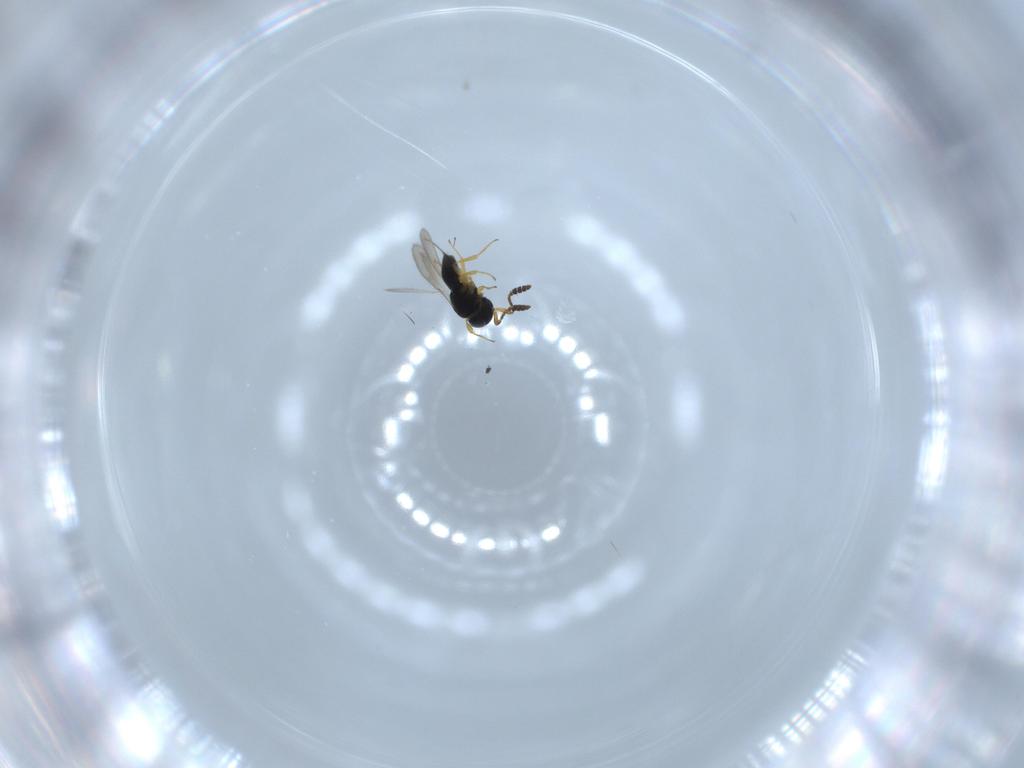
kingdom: Animalia
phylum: Arthropoda
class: Insecta
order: Hymenoptera
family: Scelionidae
